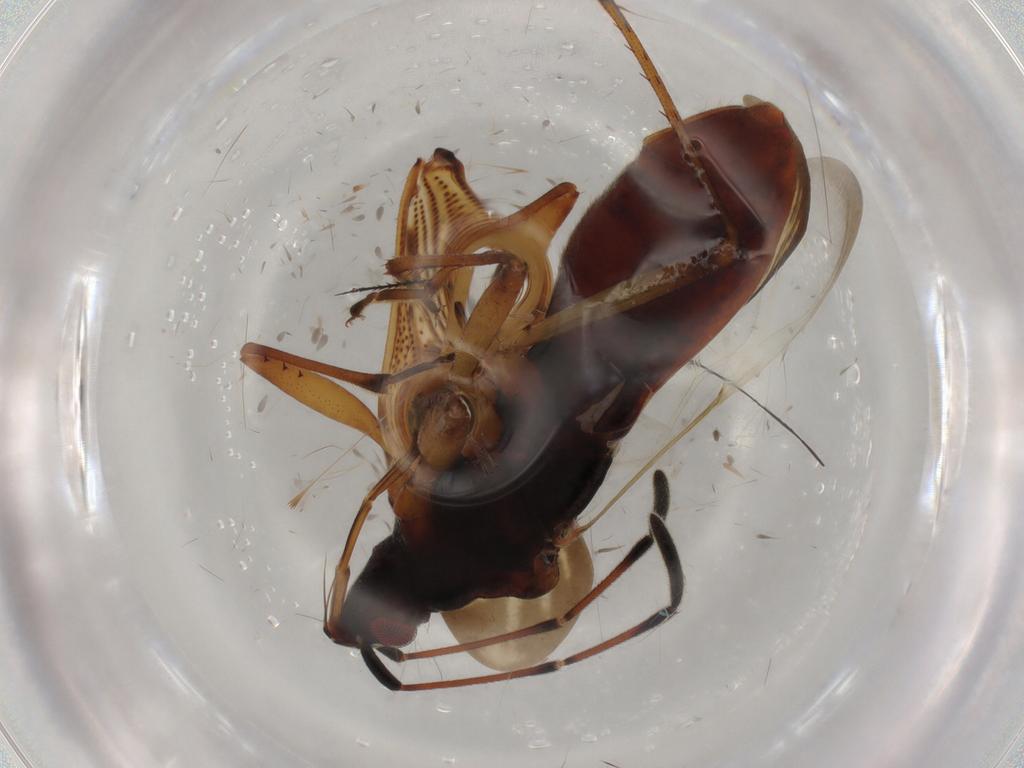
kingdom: Animalia
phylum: Arthropoda
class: Insecta
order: Hemiptera
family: Rhyparochromidae
